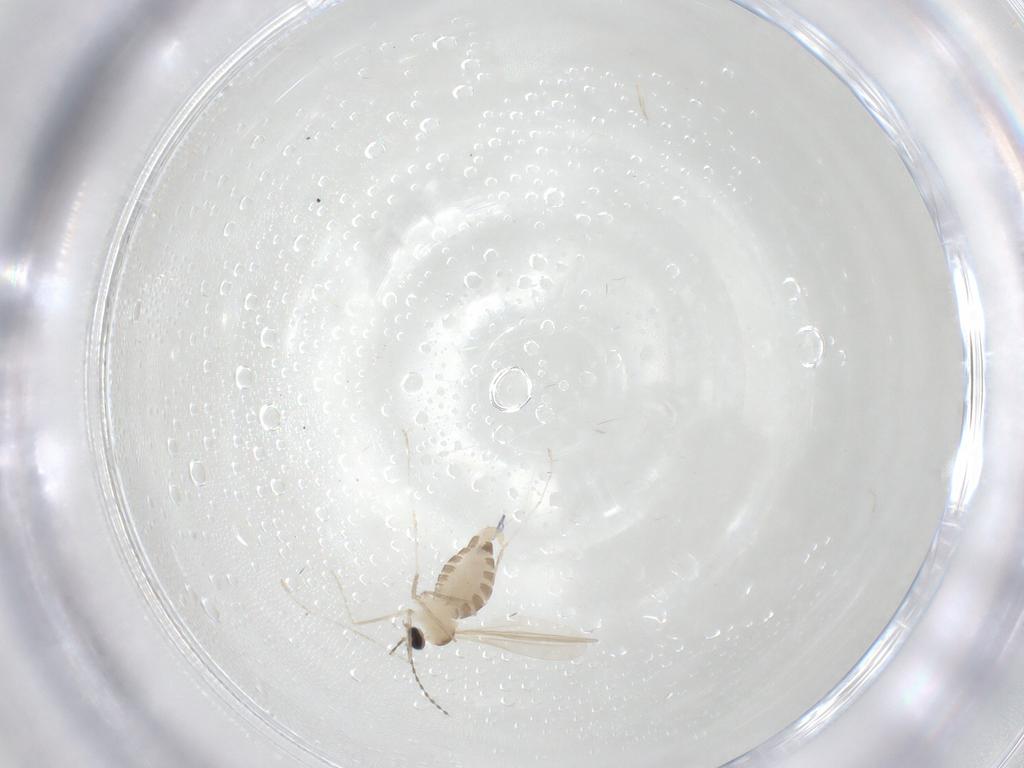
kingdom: Animalia
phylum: Arthropoda
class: Insecta
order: Diptera
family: Cecidomyiidae
